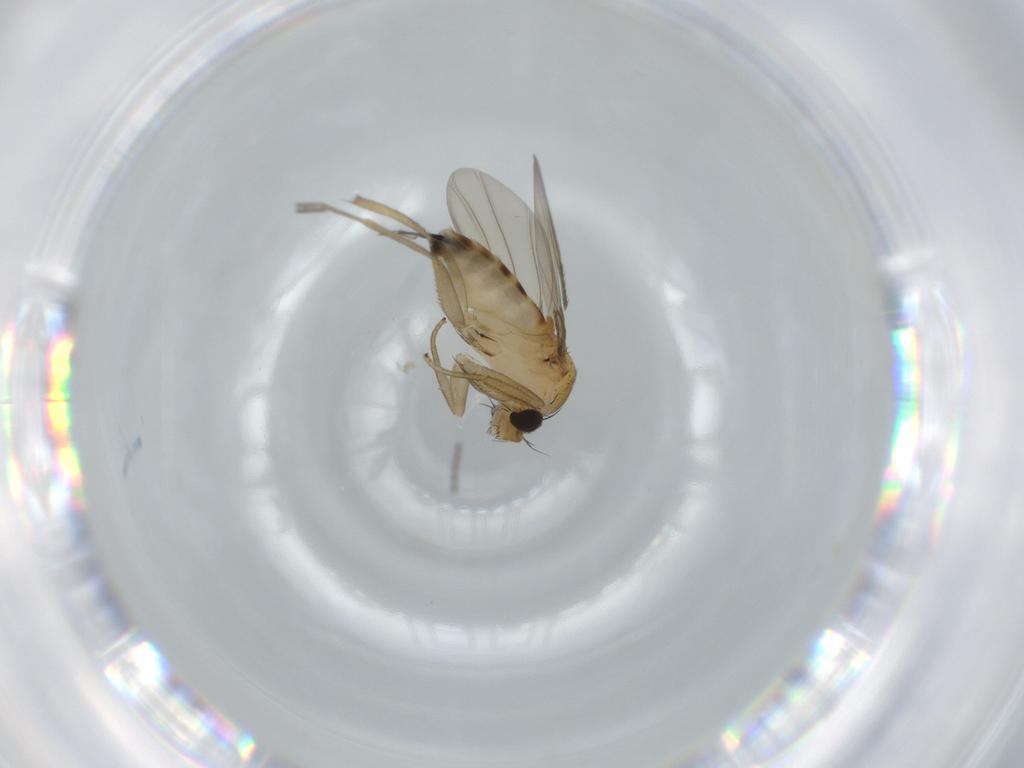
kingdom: Animalia
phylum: Arthropoda
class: Insecta
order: Diptera
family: Phoridae
